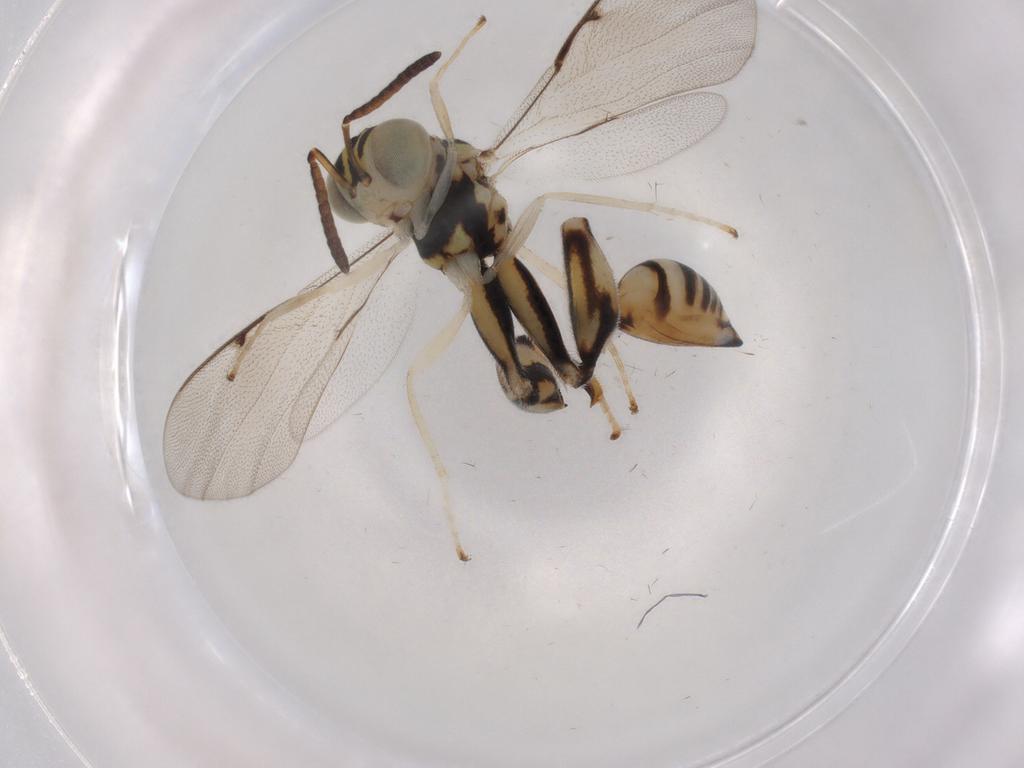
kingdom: Animalia
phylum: Arthropoda
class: Insecta
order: Hymenoptera
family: Chalcididae
